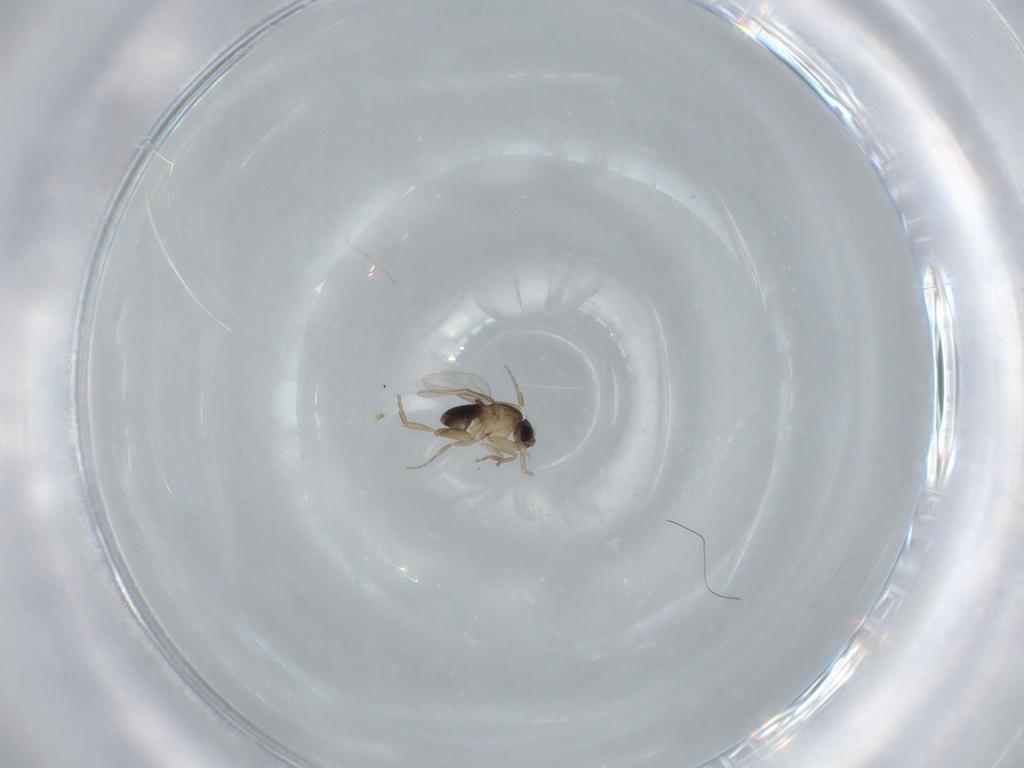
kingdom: Animalia
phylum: Arthropoda
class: Insecta
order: Diptera
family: Phoridae
